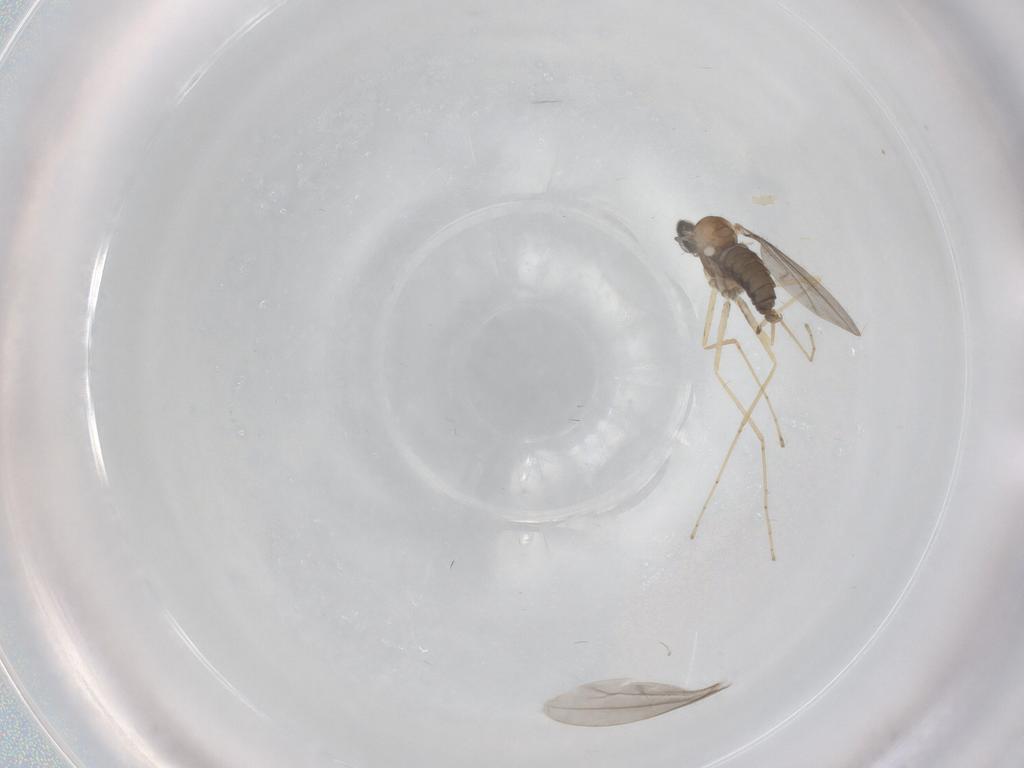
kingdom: Animalia
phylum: Arthropoda
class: Insecta
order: Diptera
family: Cecidomyiidae
